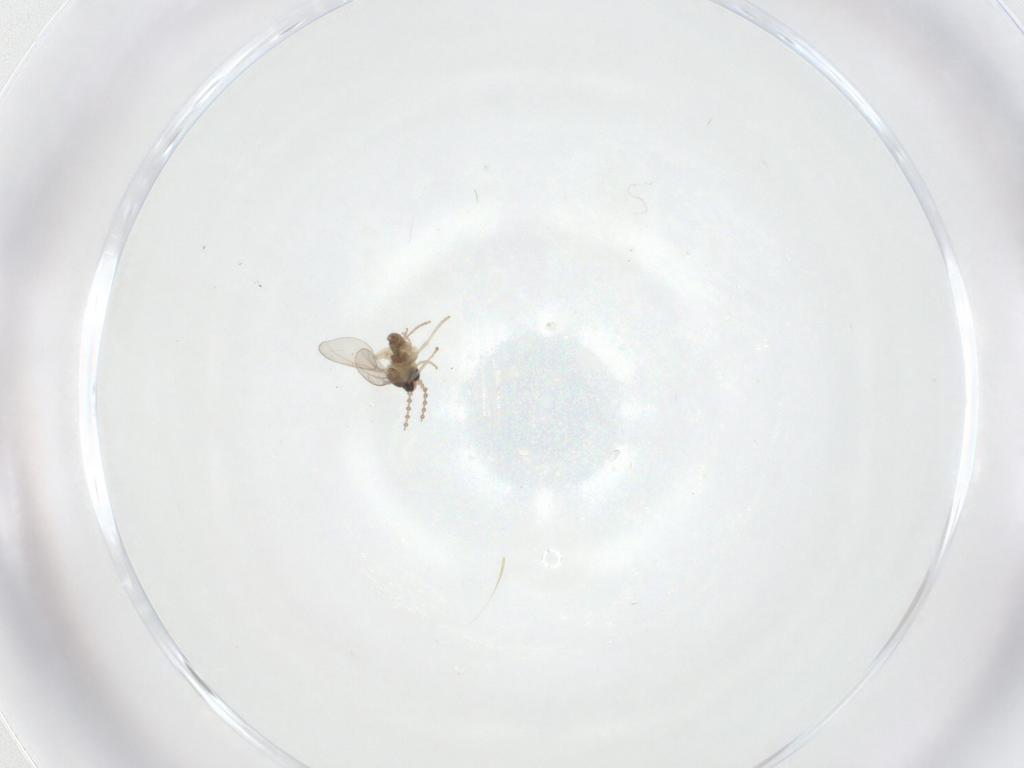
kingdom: Animalia
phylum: Arthropoda
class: Insecta
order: Diptera
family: Cecidomyiidae
